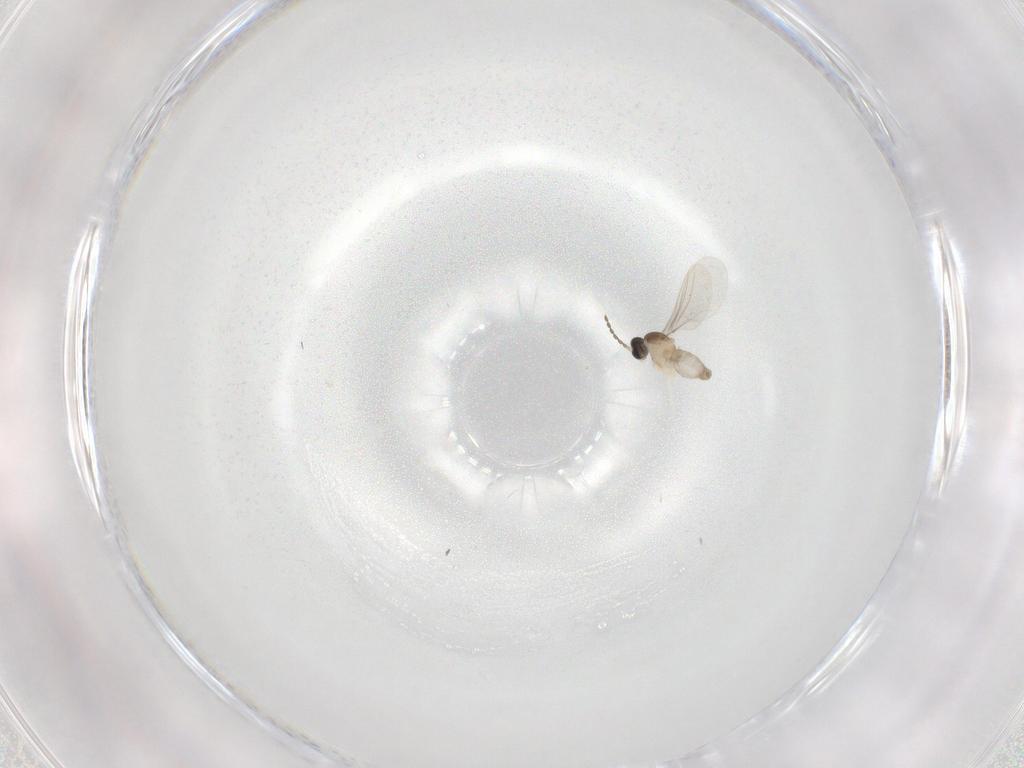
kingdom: Animalia
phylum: Arthropoda
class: Insecta
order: Diptera
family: Cecidomyiidae
